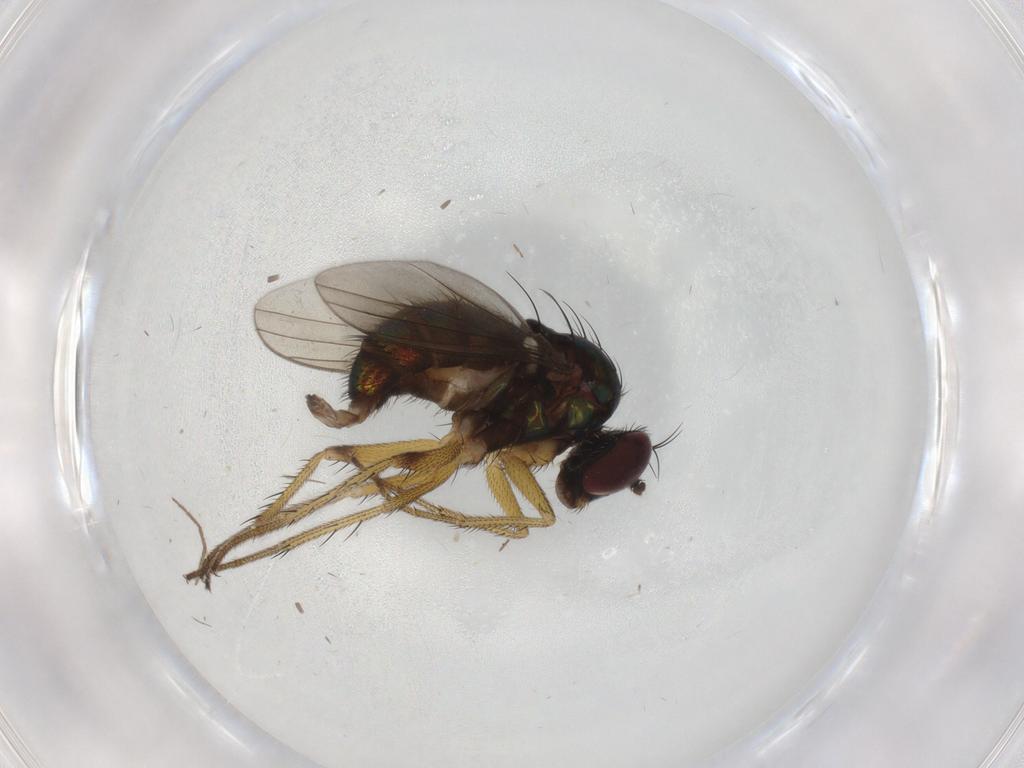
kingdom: Animalia
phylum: Arthropoda
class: Insecta
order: Diptera
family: Dolichopodidae
